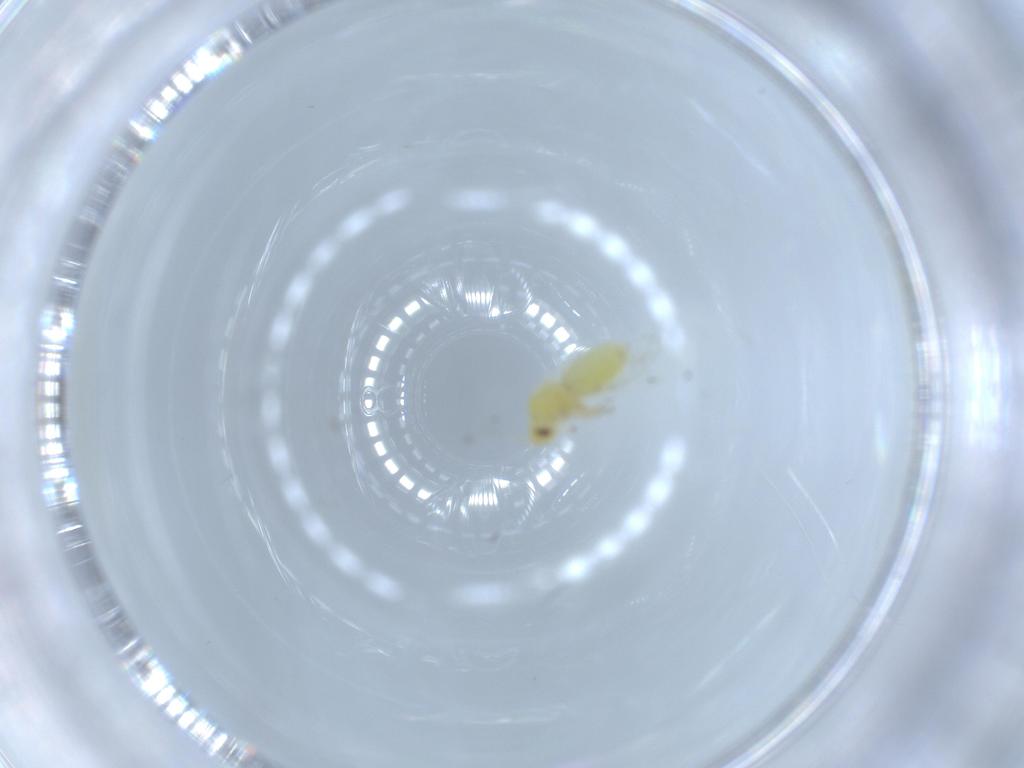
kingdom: Animalia
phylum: Arthropoda
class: Insecta
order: Hemiptera
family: Aleyrodidae
